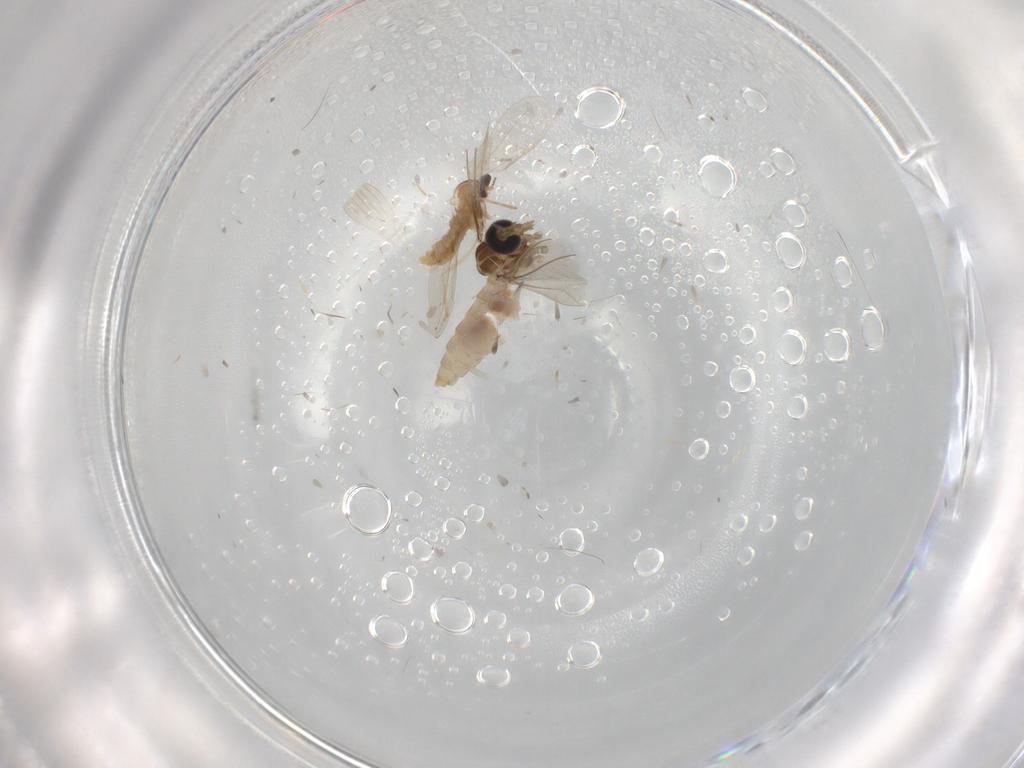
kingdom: Animalia
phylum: Arthropoda
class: Insecta
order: Diptera
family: Cecidomyiidae
